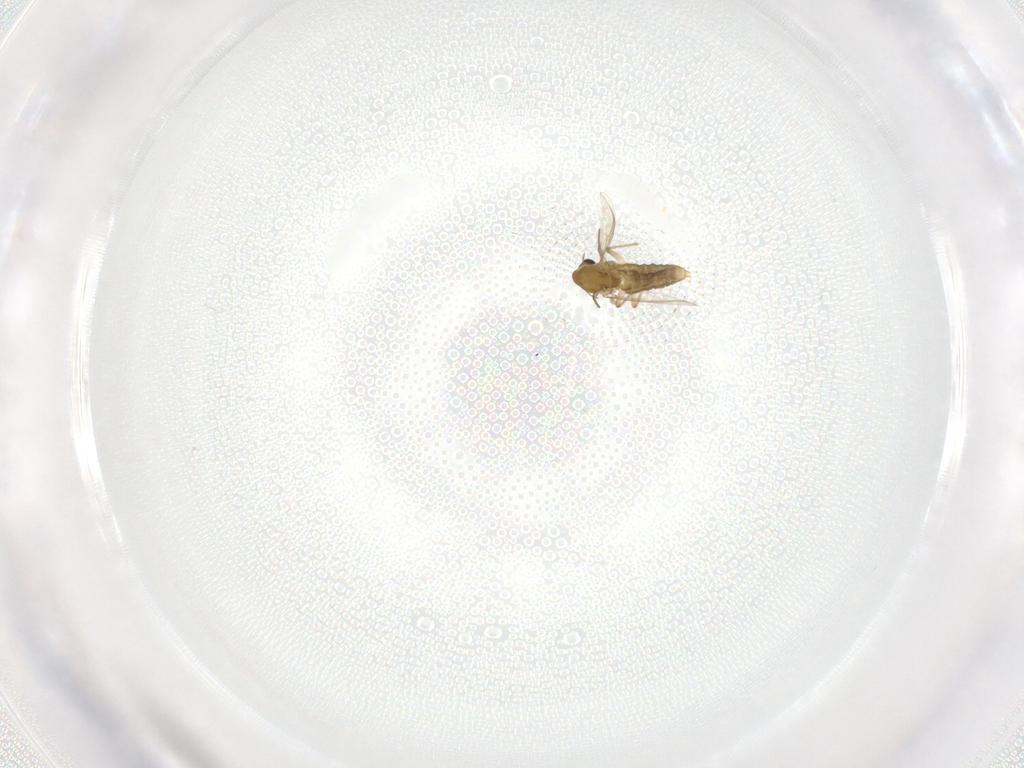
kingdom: Animalia
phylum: Arthropoda
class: Insecta
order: Diptera
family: Chironomidae
